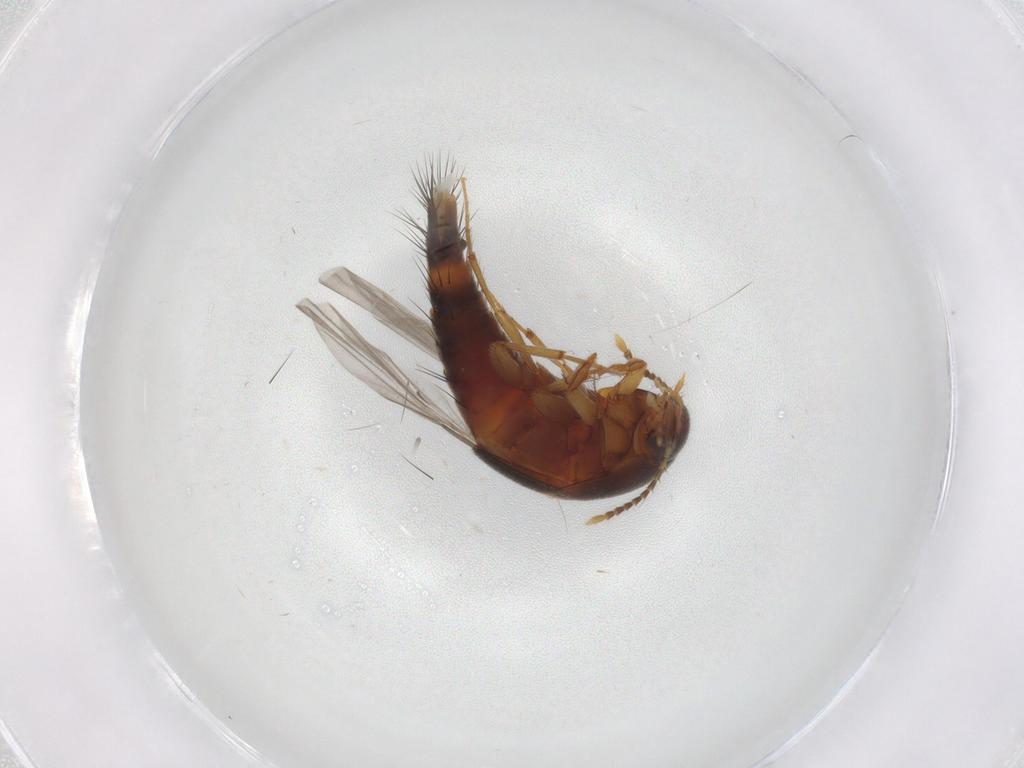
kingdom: Animalia
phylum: Arthropoda
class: Insecta
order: Coleoptera
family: Staphylinidae
